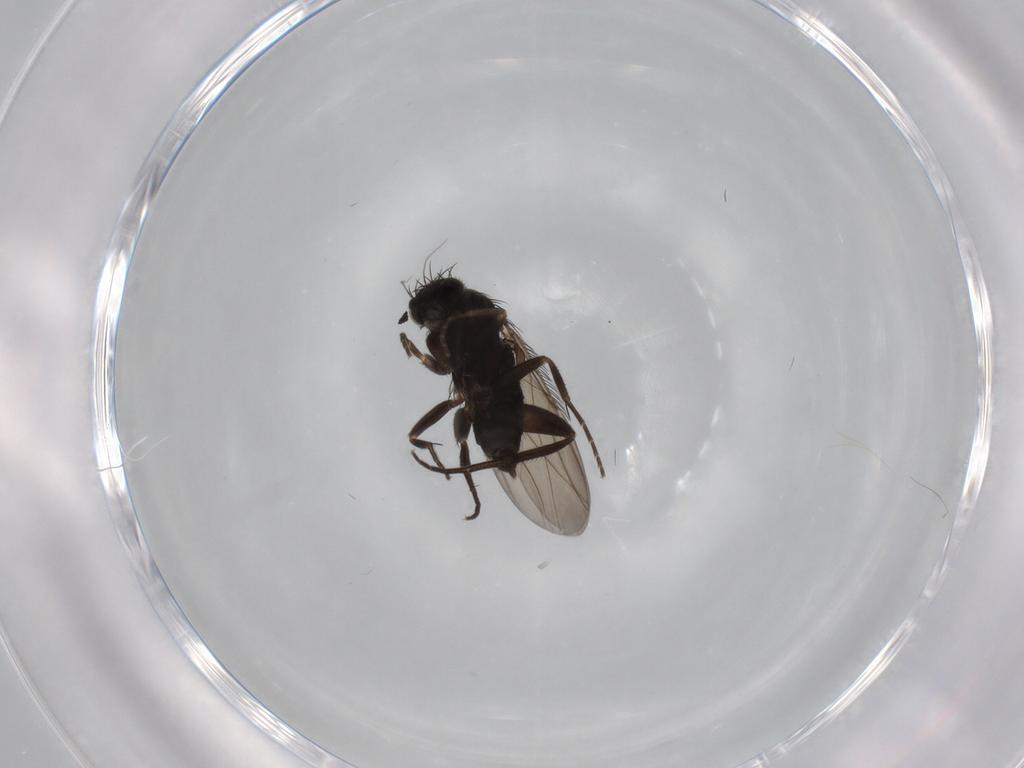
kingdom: Animalia
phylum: Arthropoda
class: Insecta
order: Diptera
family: Phoridae
